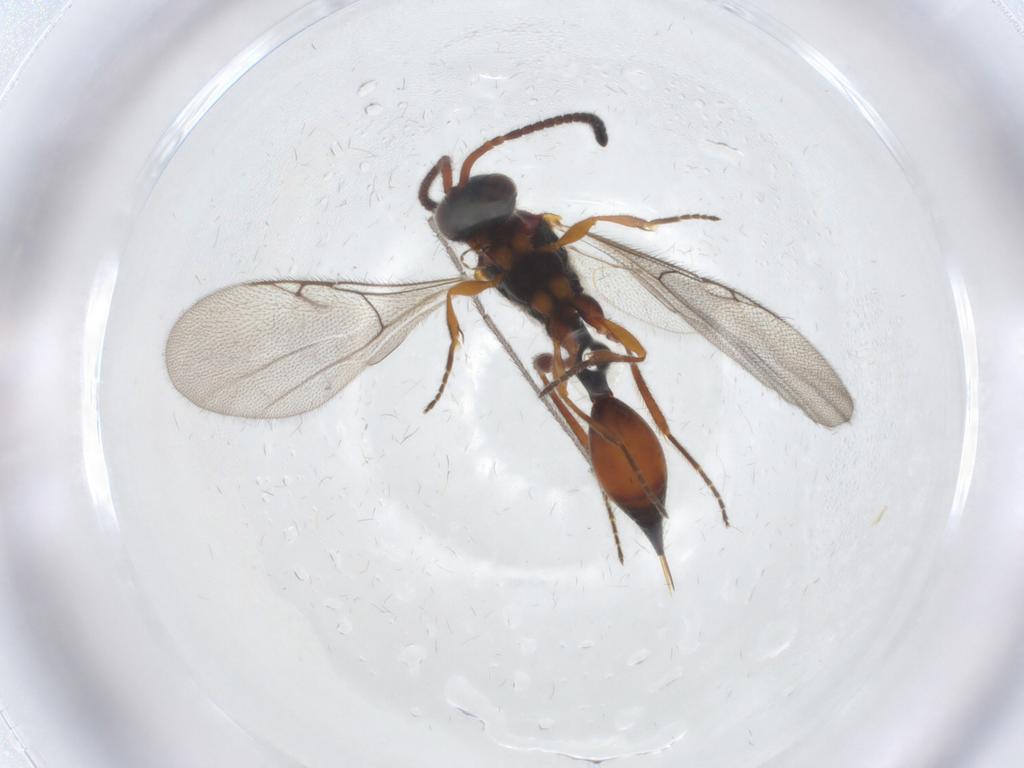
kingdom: Animalia
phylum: Arthropoda
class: Insecta
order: Hymenoptera
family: Diapriidae
